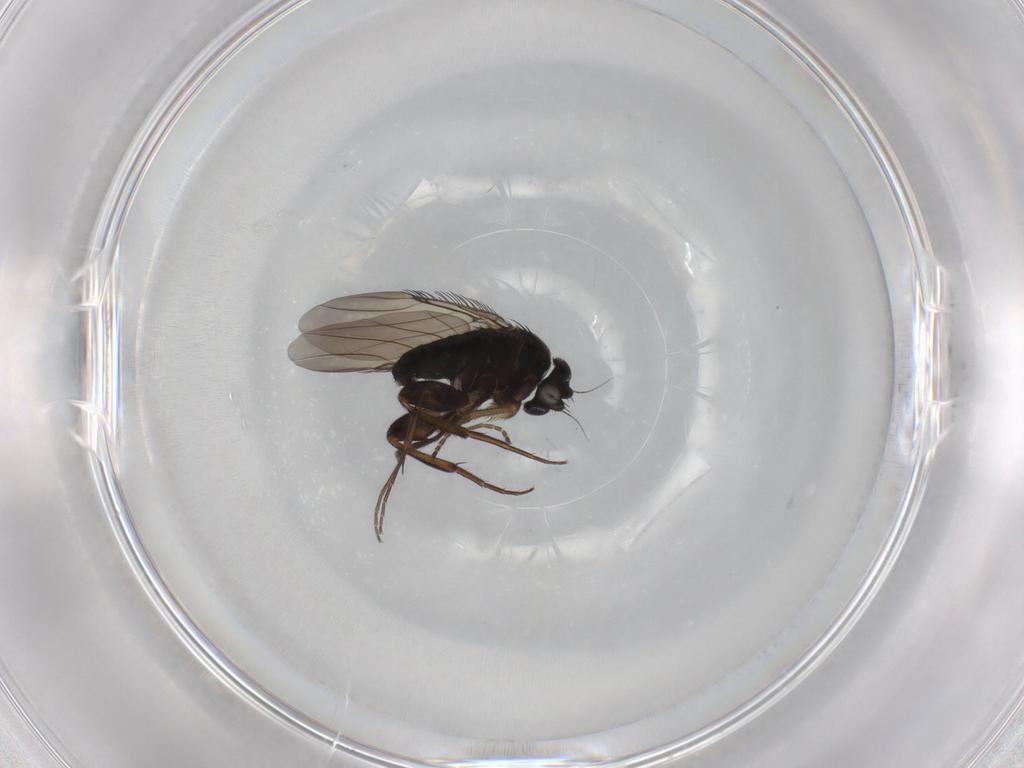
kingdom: Animalia
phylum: Arthropoda
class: Insecta
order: Diptera
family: Phoridae
